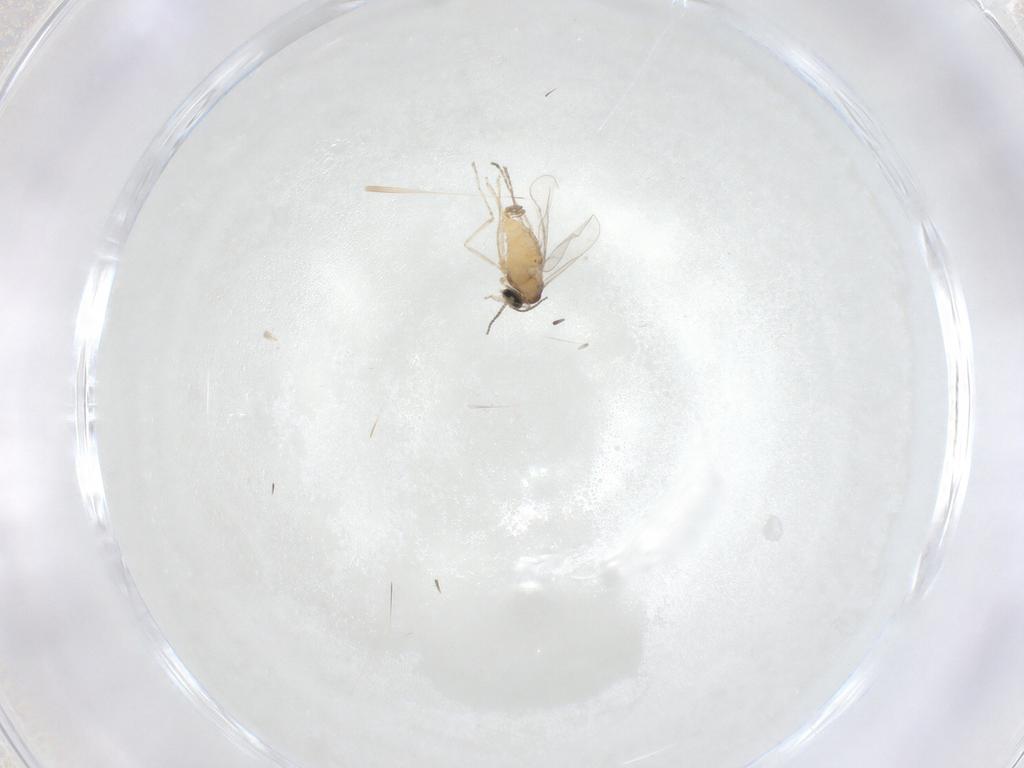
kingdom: Animalia
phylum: Arthropoda
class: Insecta
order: Diptera
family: Cecidomyiidae
